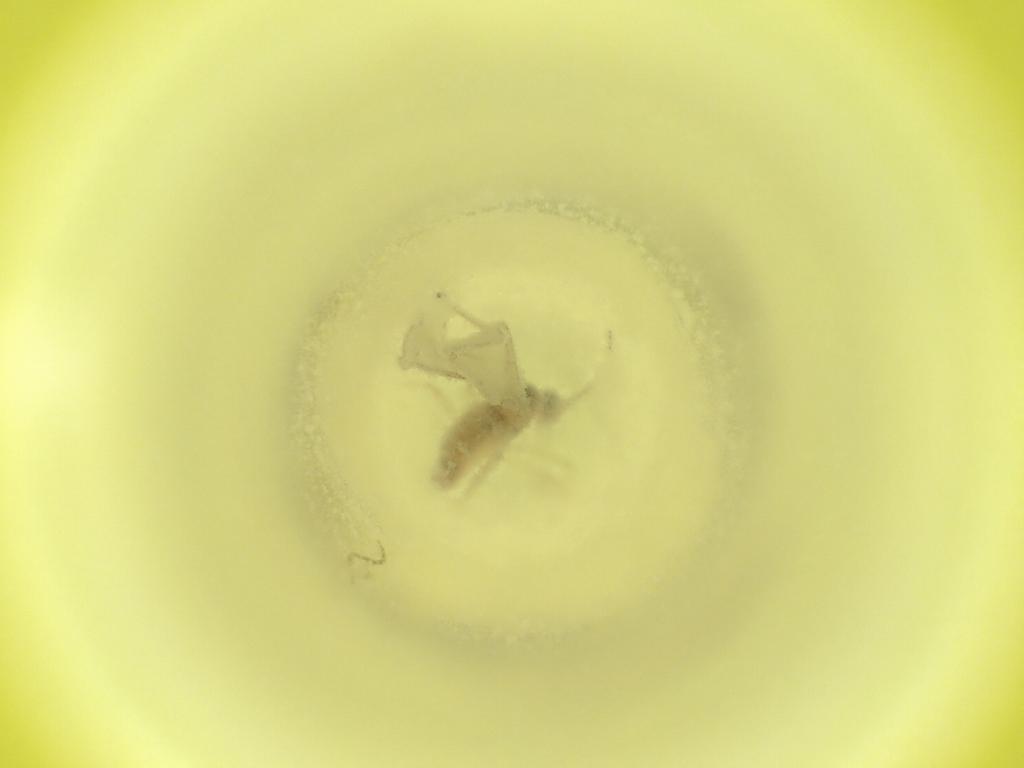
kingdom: Animalia
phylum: Arthropoda
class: Insecta
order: Diptera
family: Cecidomyiidae
